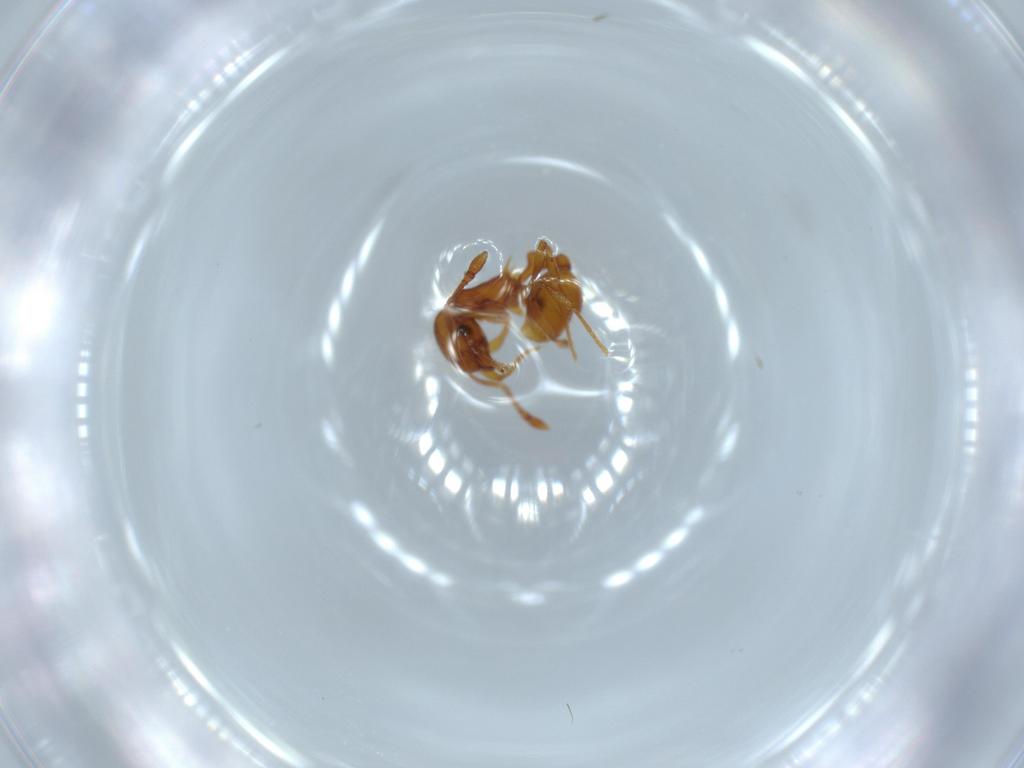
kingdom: Animalia
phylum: Arthropoda
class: Insecta
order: Hymenoptera
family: Formicidae
